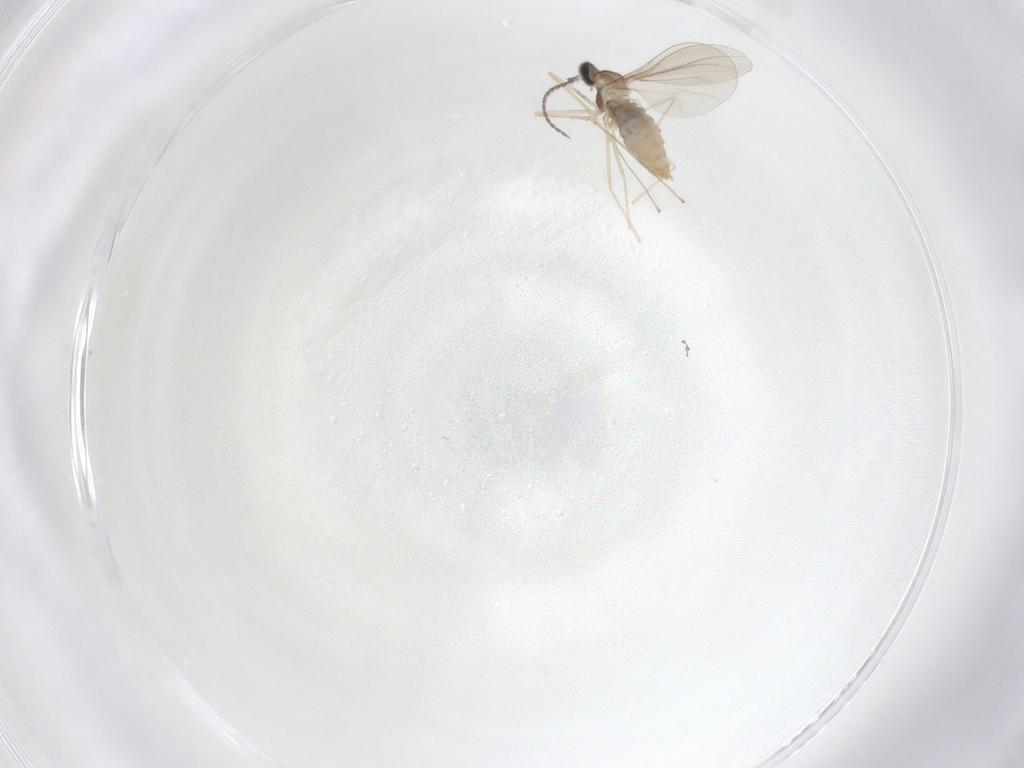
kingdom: Animalia
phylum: Arthropoda
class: Insecta
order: Diptera
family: Cecidomyiidae
